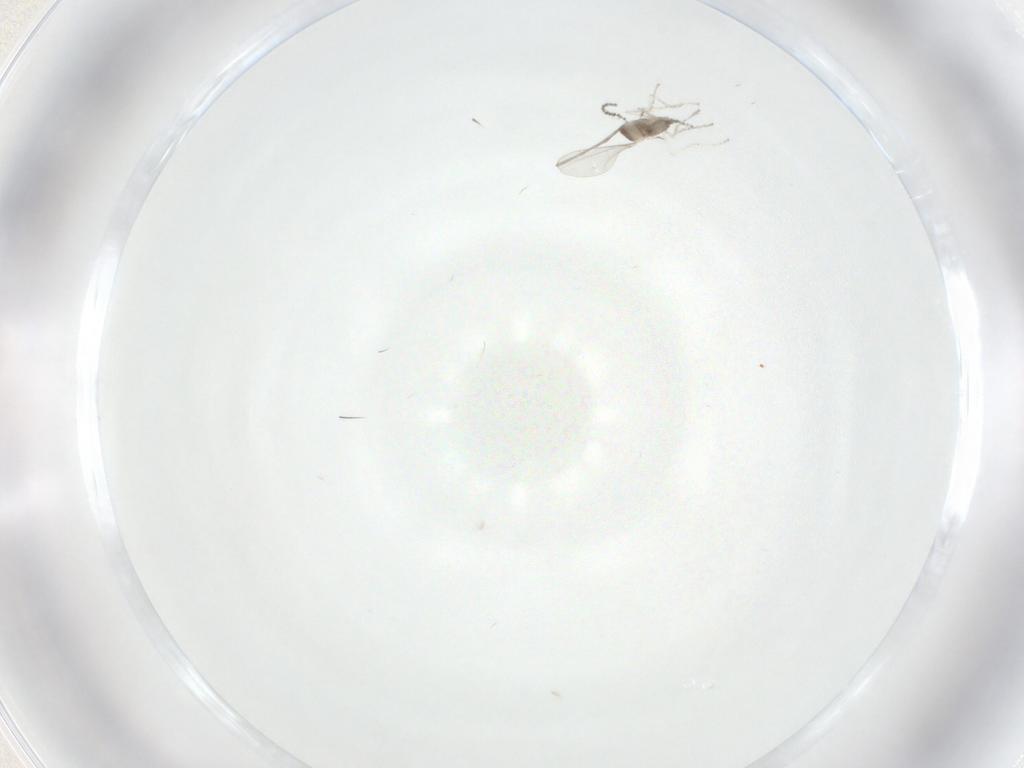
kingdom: Animalia
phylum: Arthropoda
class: Insecta
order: Diptera
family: Cecidomyiidae
